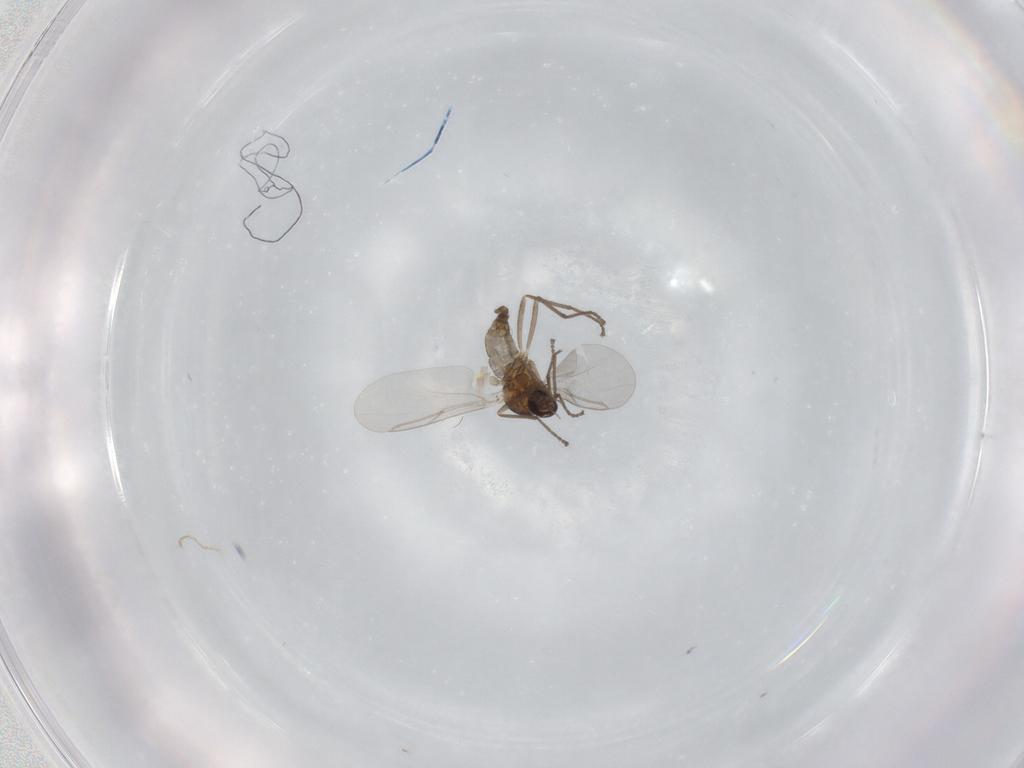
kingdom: Animalia
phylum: Arthropoda
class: Insecta
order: Diptera
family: Cecidomyiidae
